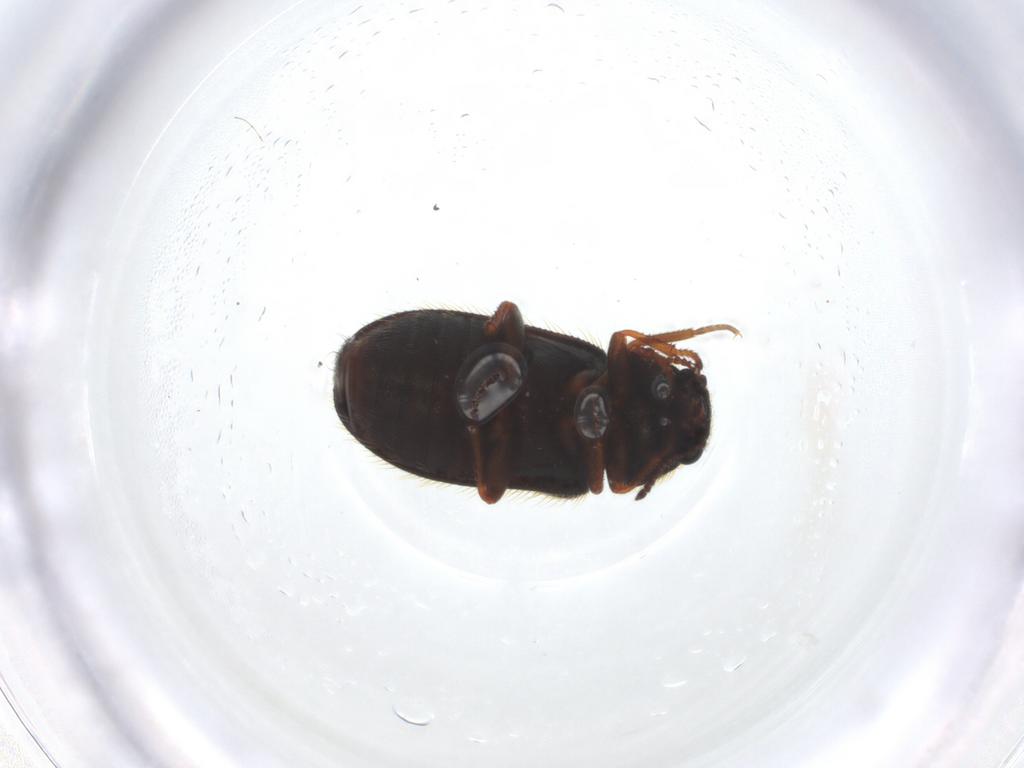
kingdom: Animalia
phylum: Arthropoda
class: Insecta
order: Coleoptera
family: Melyridae
